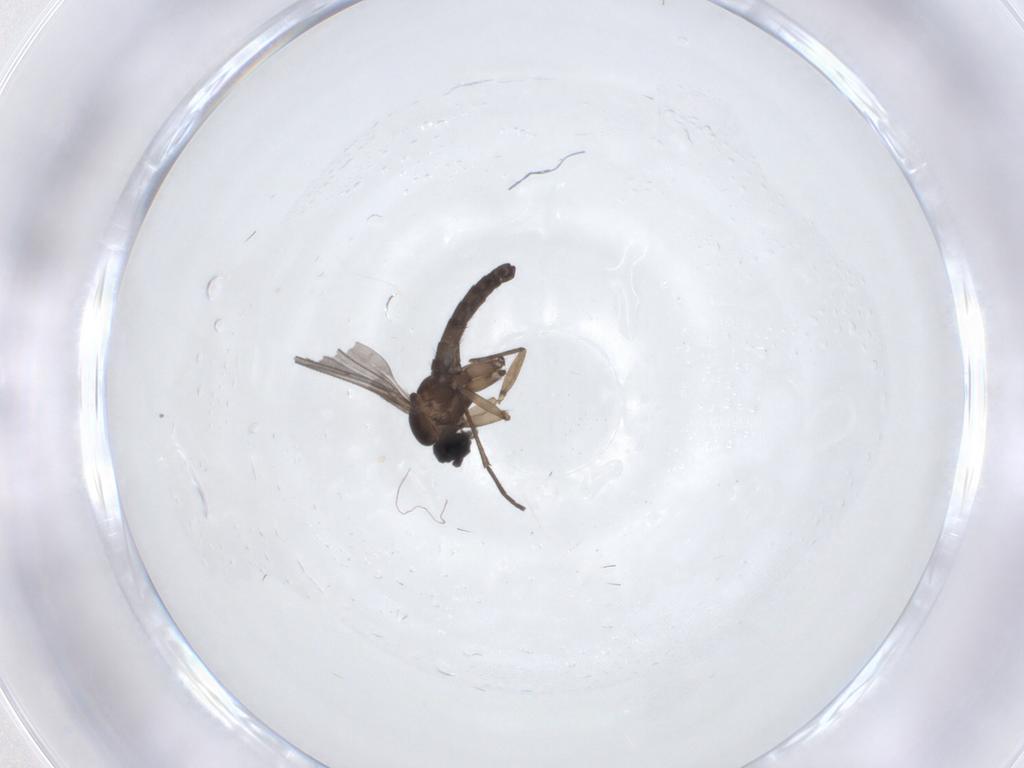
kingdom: Animalia
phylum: Arthropoda
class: Insecta
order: Diptera
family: Sciaridae
